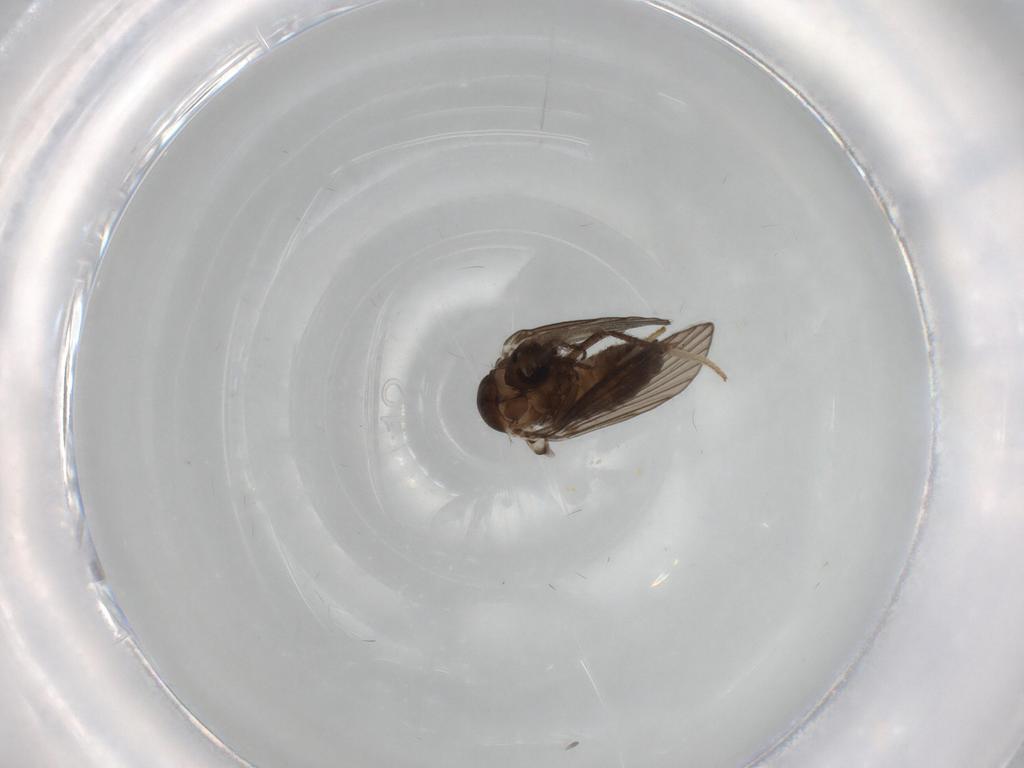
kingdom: Animalia
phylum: Arthropoda
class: Insecta
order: Diptera
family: Psychodidae
